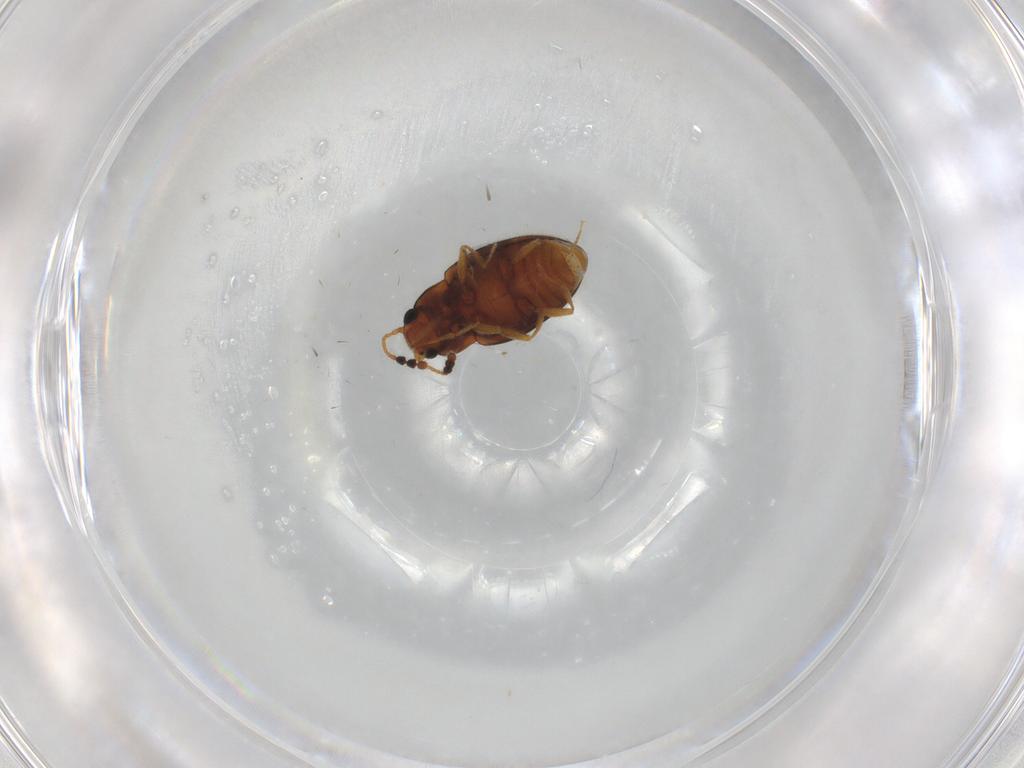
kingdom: Animalia
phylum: Arthropoda
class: Insecta
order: Coleoptera
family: Erotylidae
